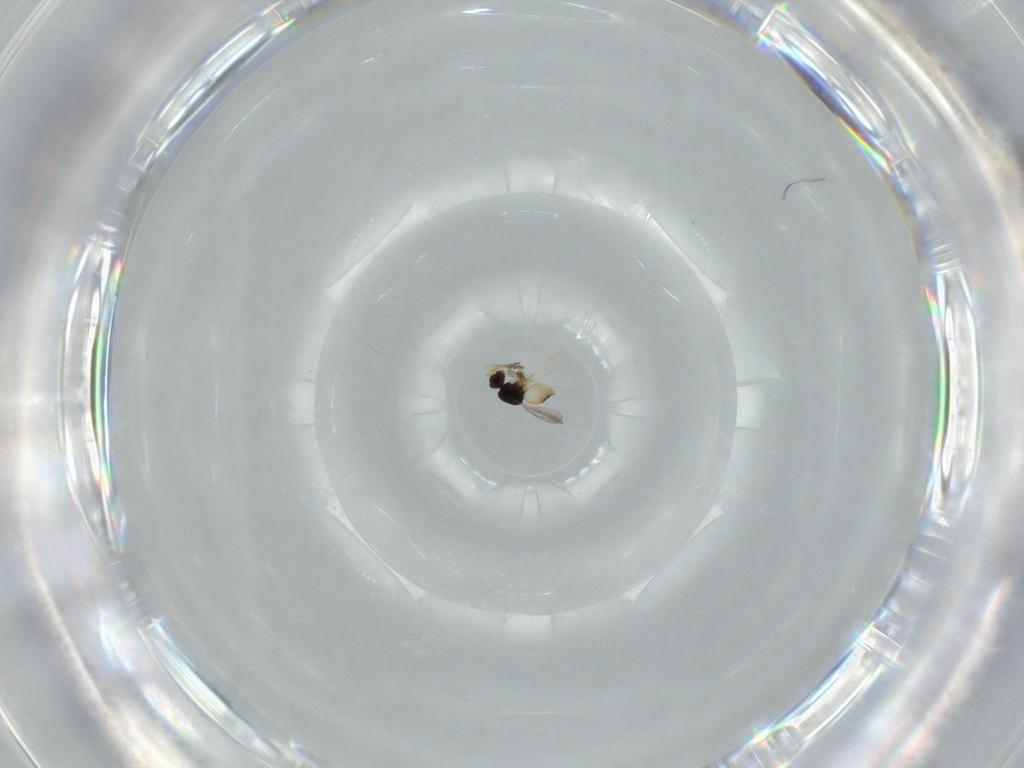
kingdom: Animalia
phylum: Arthropoda
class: Insecta
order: Hymenoptera
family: Diapriidae
